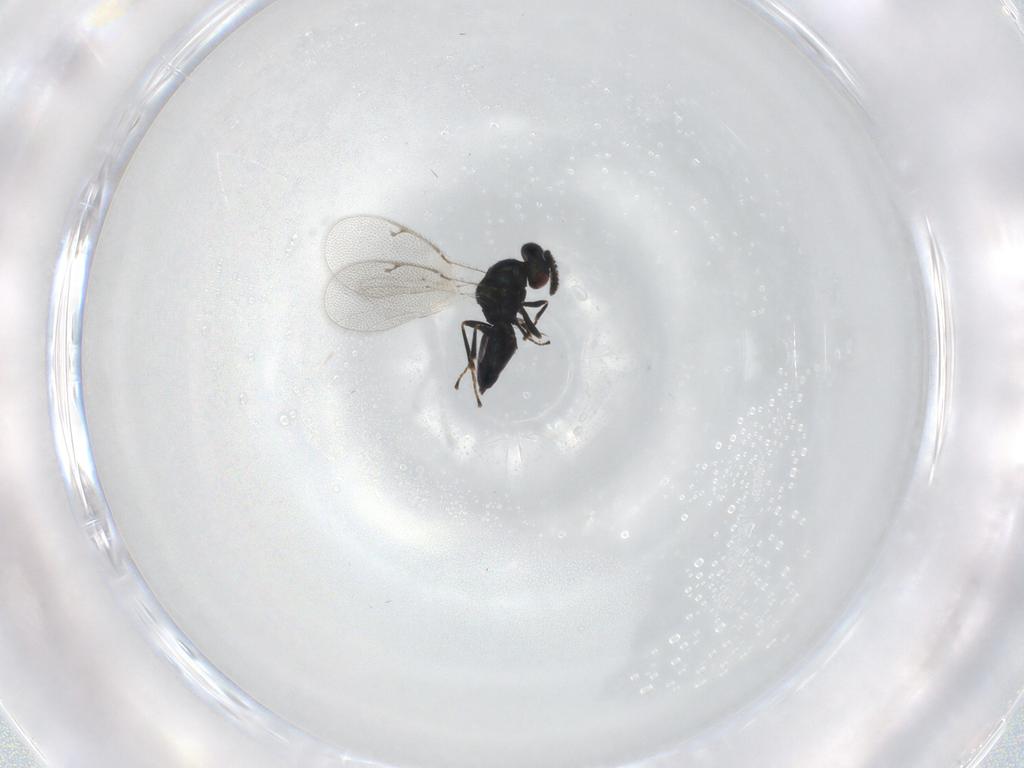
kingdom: Animalia
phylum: Arthropoda
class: Insecta
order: Hymenoptera
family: Pteromalidae
